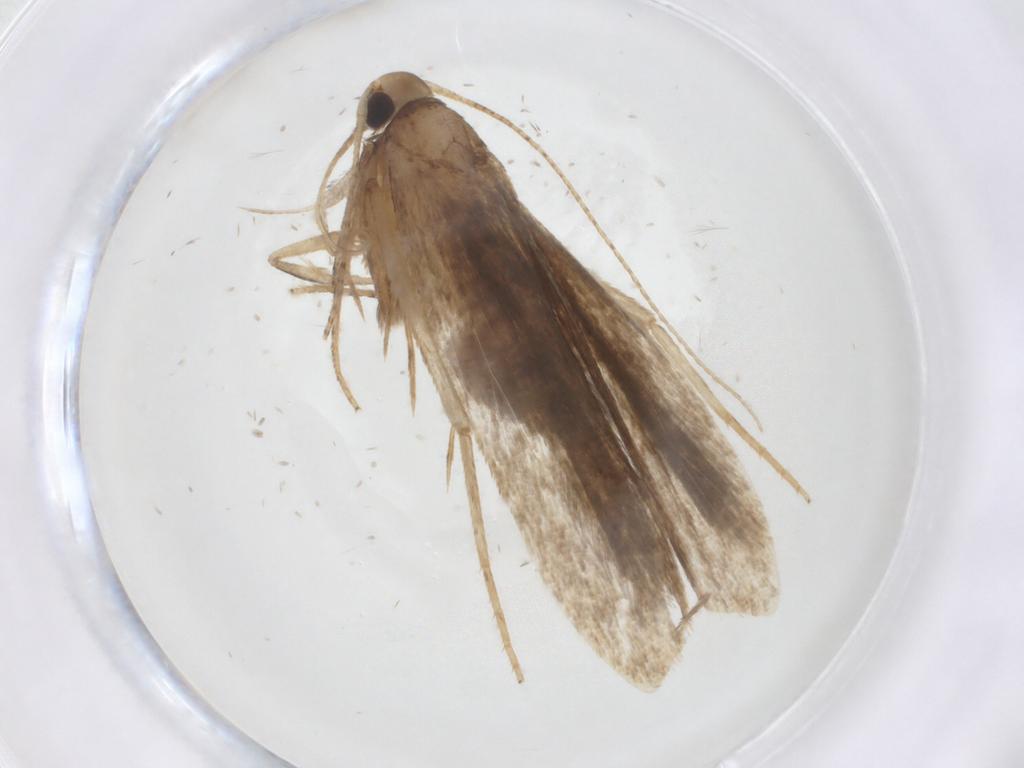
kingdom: Animalia
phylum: Arthropoda
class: Insecta
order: Lepidoptera
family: Gelechiidae
